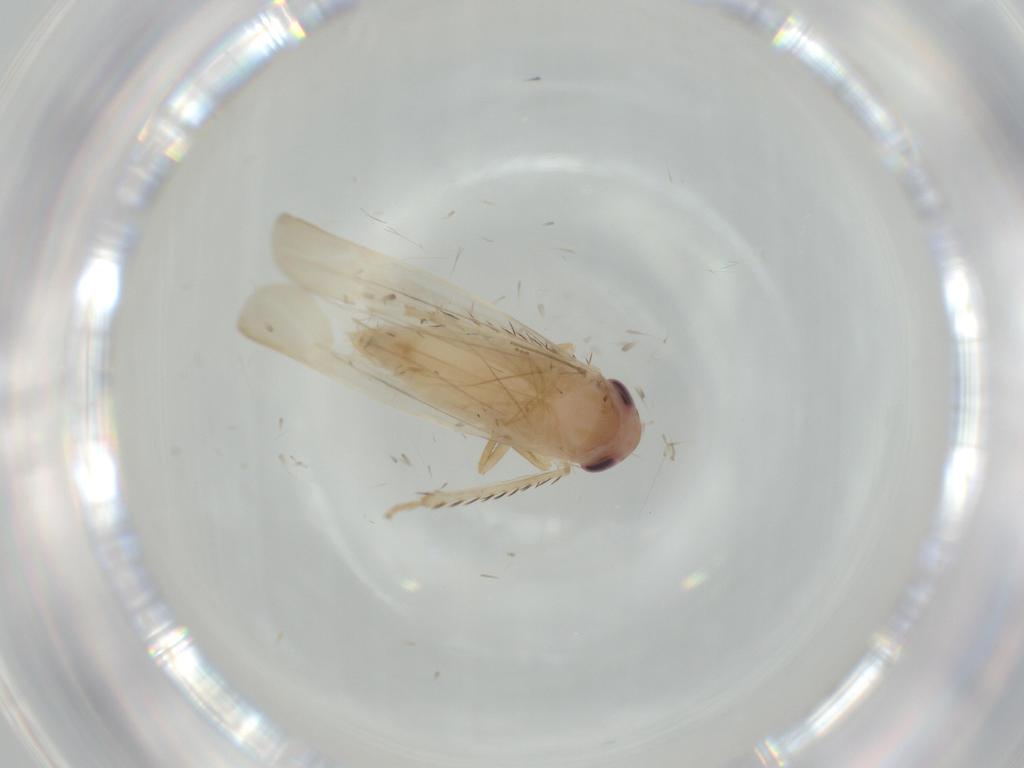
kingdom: Animalia
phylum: Arthropoda
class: Insecta
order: Hemiptera
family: Cicadellidae
